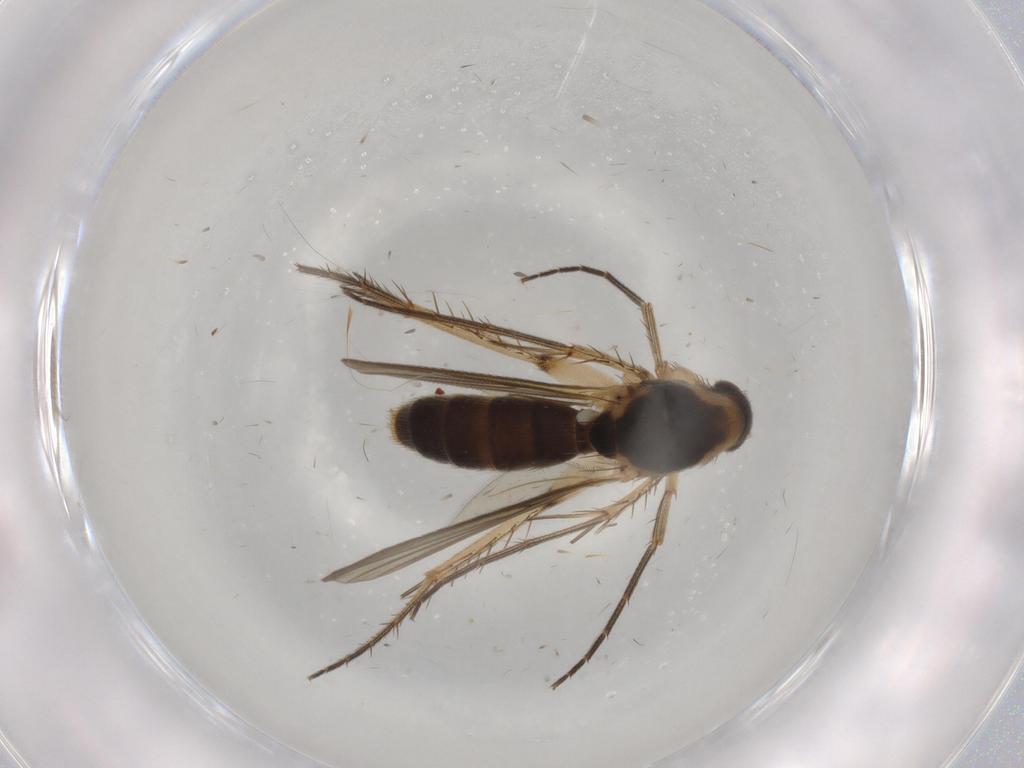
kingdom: Animalia
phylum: Arthropoda
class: Insecta
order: Diptera
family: Mycetophilidae
